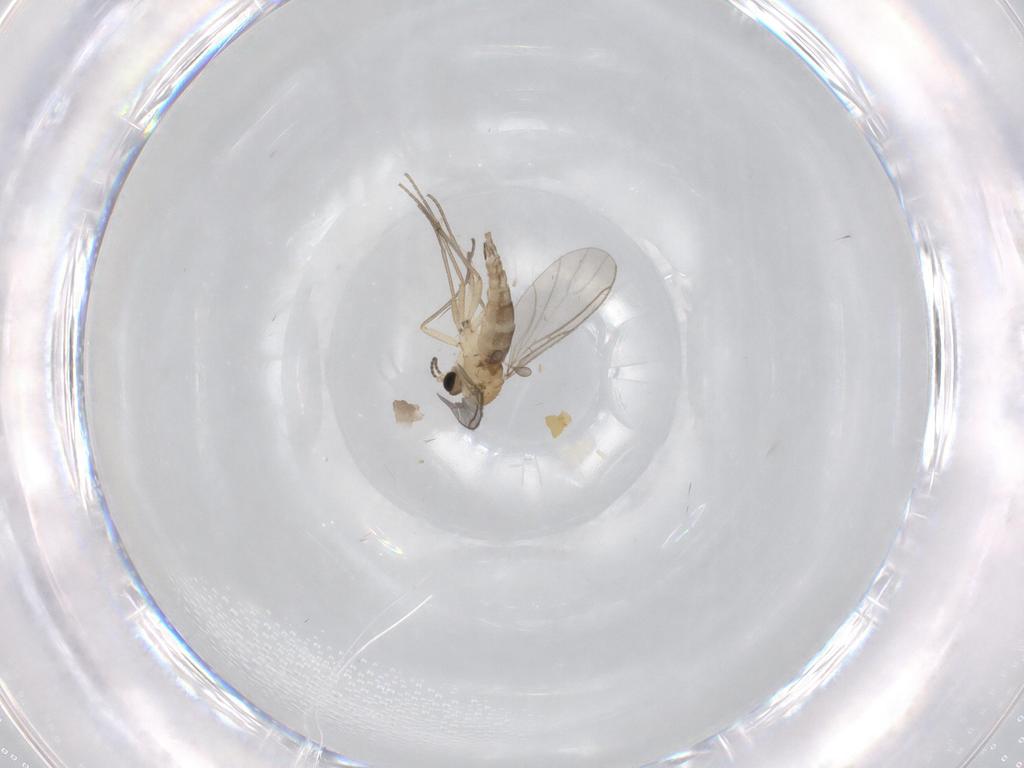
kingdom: Animalia
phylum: Arthropoda
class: Insecta
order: Diptera
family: Sciaridae
